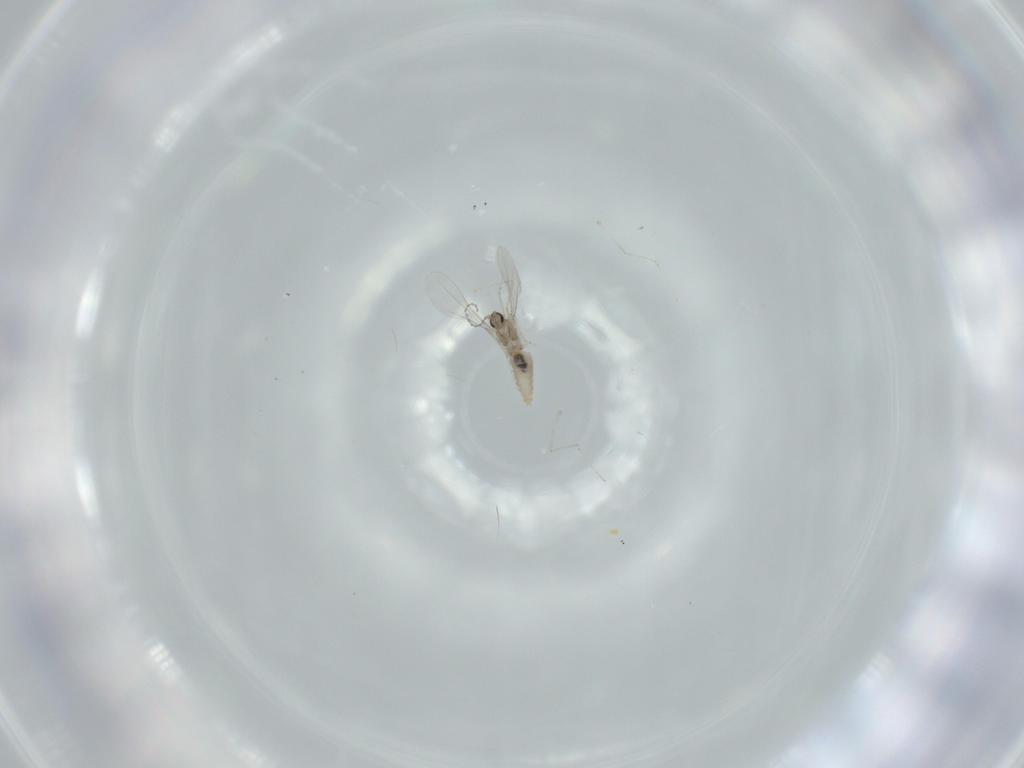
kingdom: Animalia
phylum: Arthropoda
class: Insecta
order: Diptera
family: Cecidomyiidae
